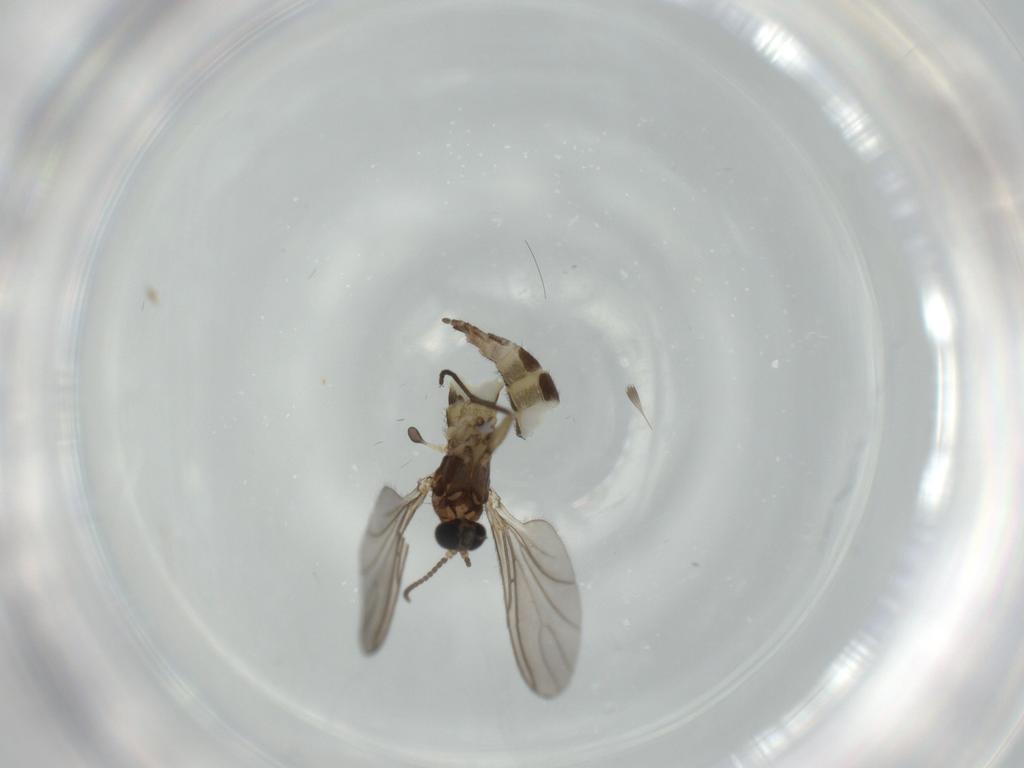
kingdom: Animalia
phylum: Arthropoda
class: Insecta
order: Diptera
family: Sciaridae
